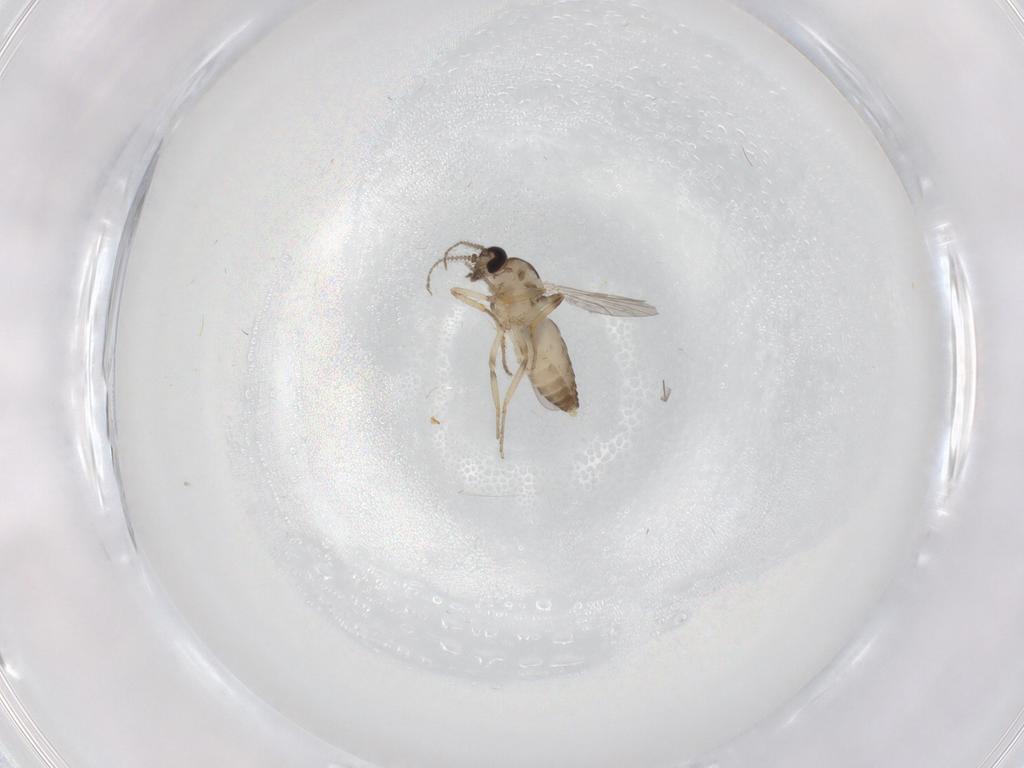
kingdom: Animalia
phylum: Arthropoda
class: Insecta
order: Diptera
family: Ceratopogonidae
